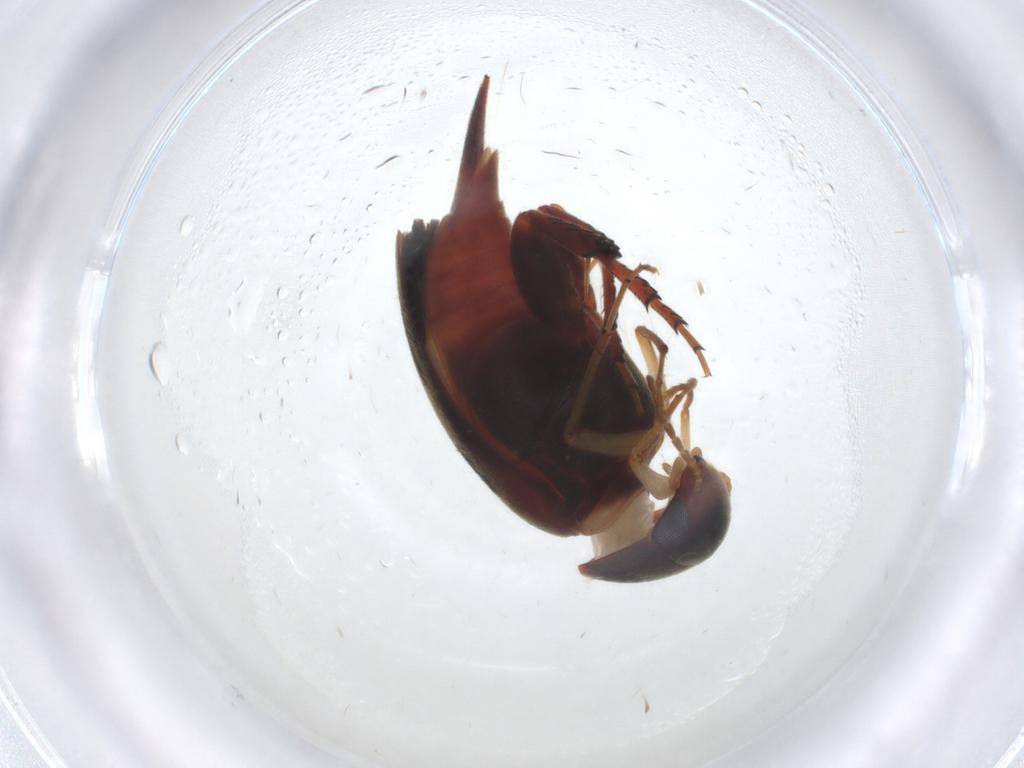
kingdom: Animalia
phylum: Arthropoda
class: Insecta
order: Coleoptera
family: Mordellidae
